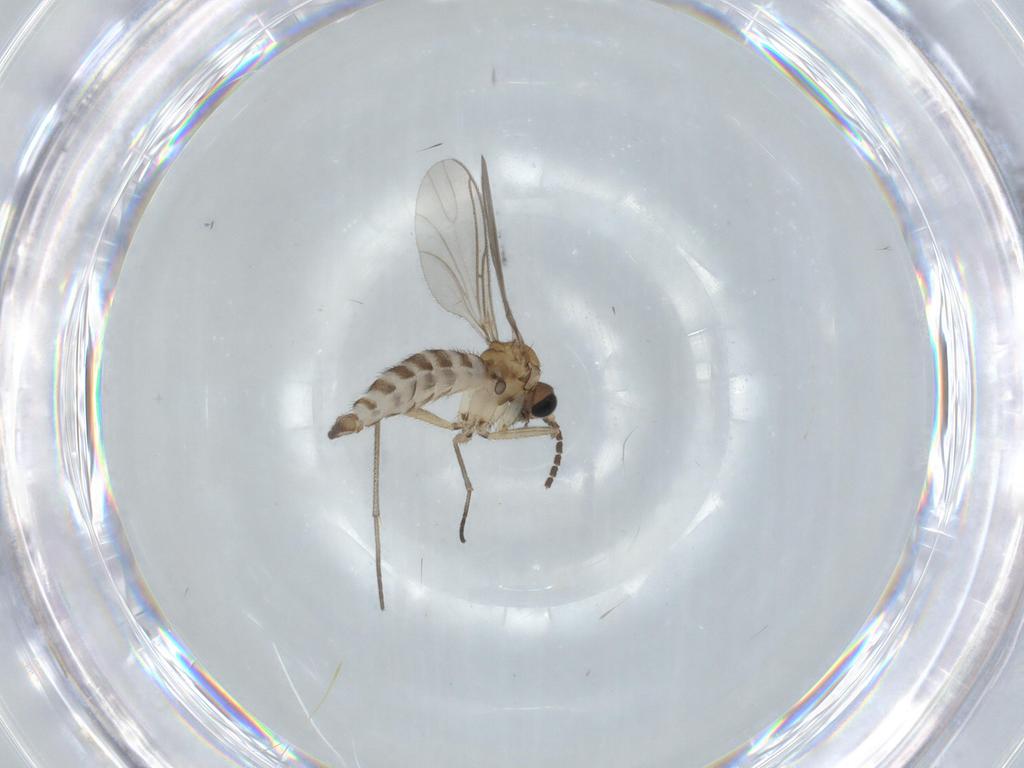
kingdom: Animalia
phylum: Arthropoda
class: Insecta
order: Diptera
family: Sciaridae
